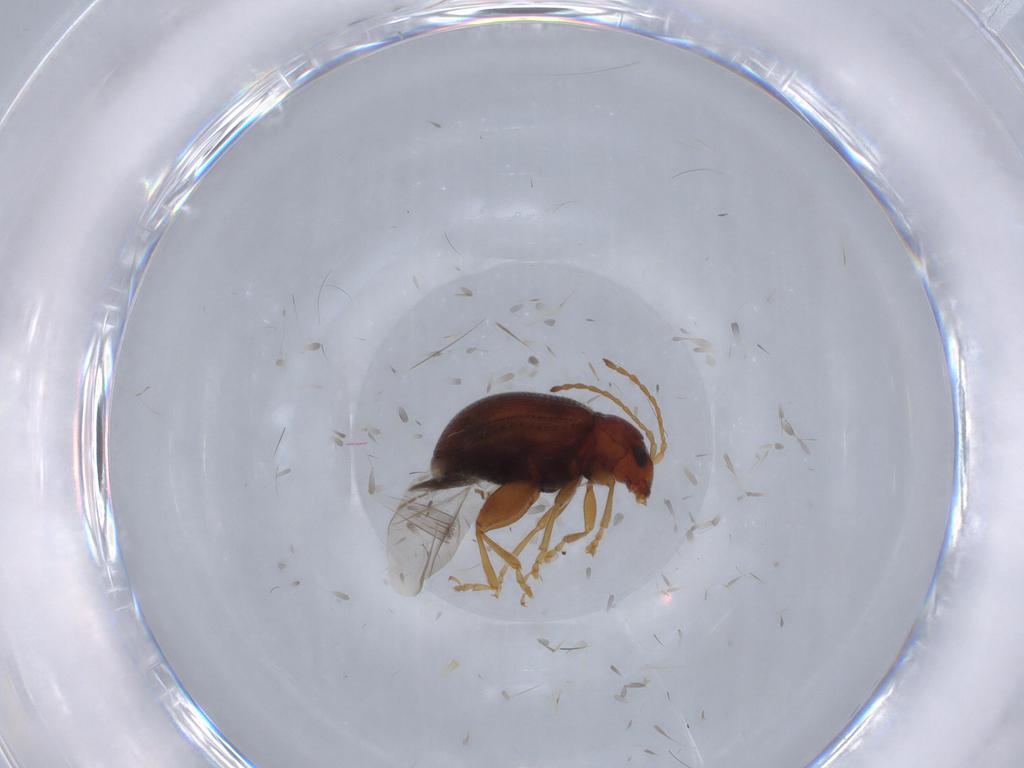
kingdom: Animalia
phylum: Arthropoda
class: Insecta
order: Coleoptera
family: Chrysomelidae
